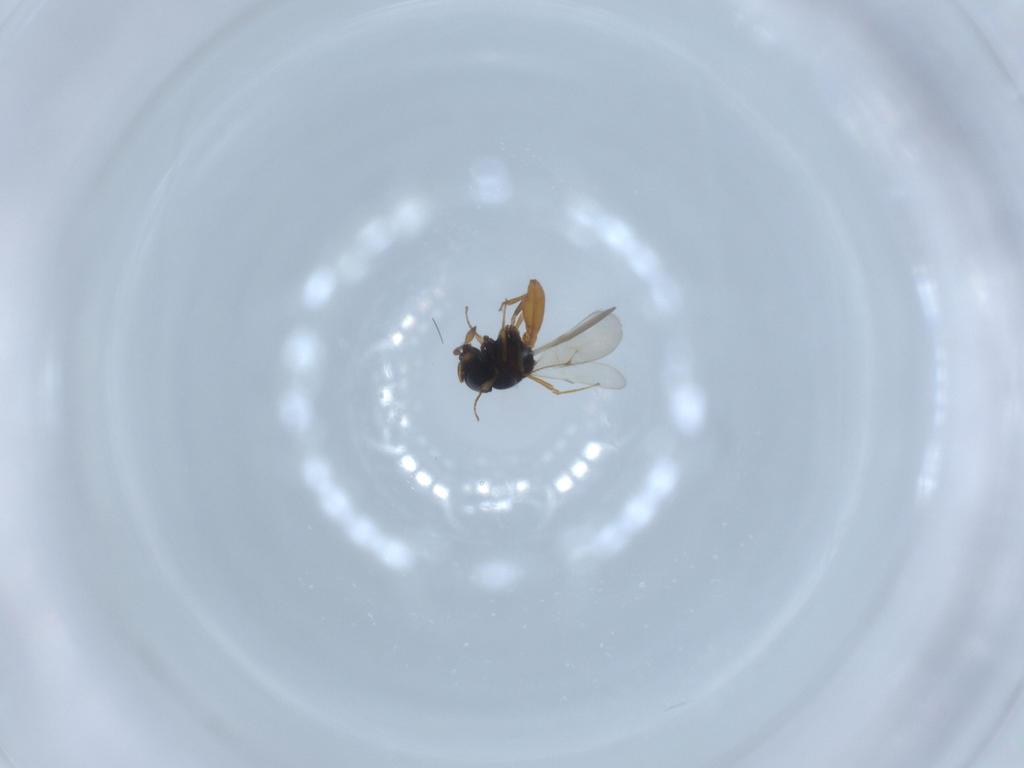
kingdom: Animalia
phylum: Arthropoda
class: Insecta
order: Hymenoptera
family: Scelionidae
